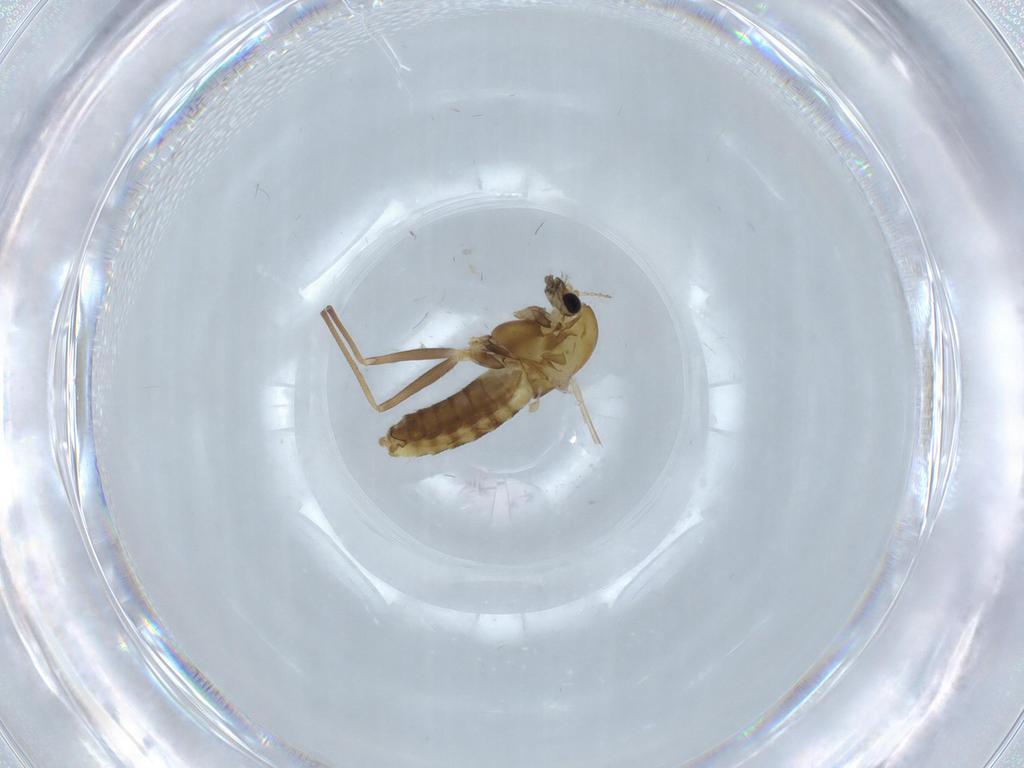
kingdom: Animalia
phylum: Arthropoda
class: Insecta
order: Diptera
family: Chironomidae
